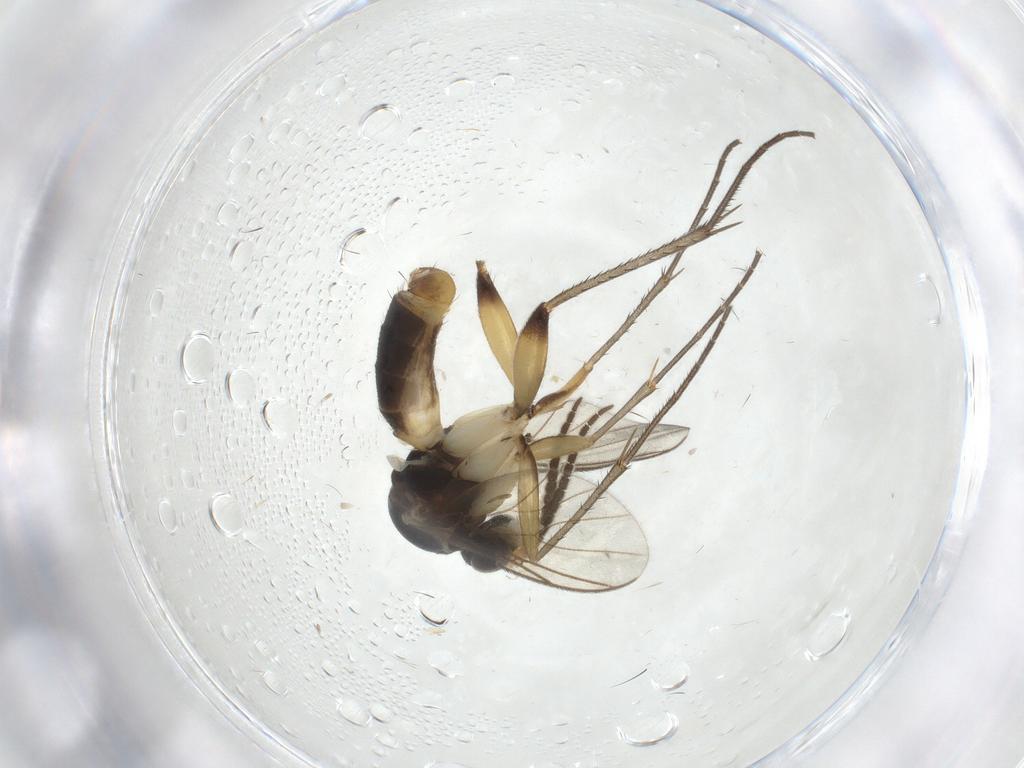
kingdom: Animalia
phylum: Arthropoda
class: Insecta
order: Diptera
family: Mycetophilidae
